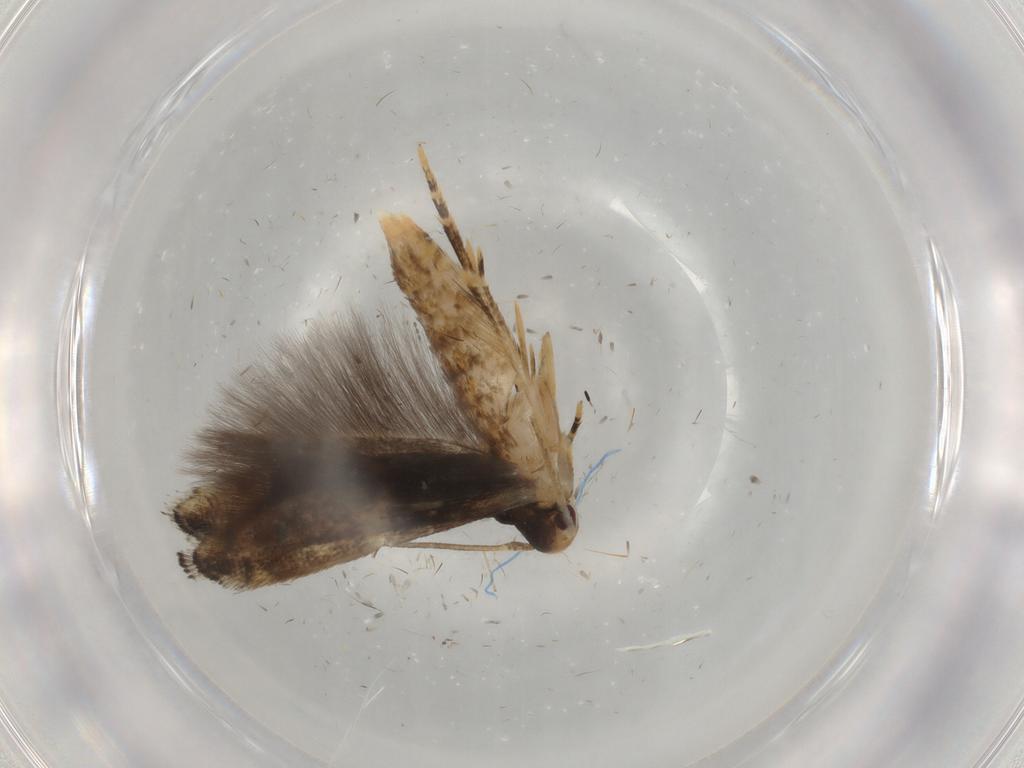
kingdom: Animalia
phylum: Arthropoda
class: Insecta
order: Lepidoptera
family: Momphidae
